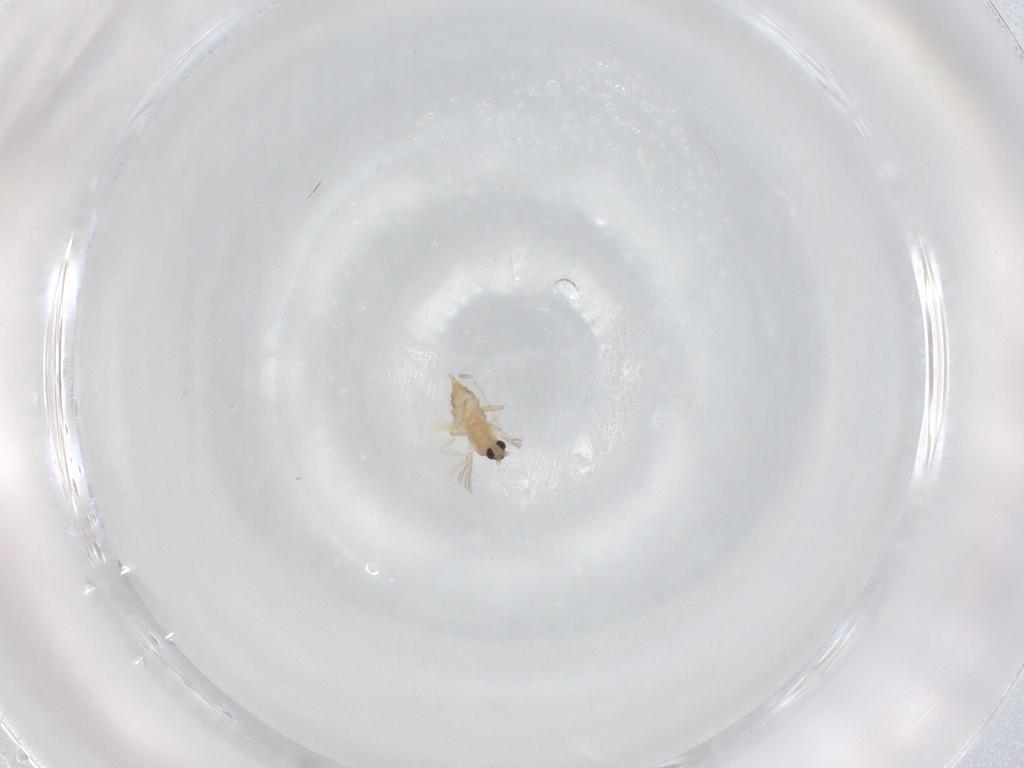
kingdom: Animalia
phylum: Arthropoda
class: Insecta
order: Diptera
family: Cecidomyiidae
